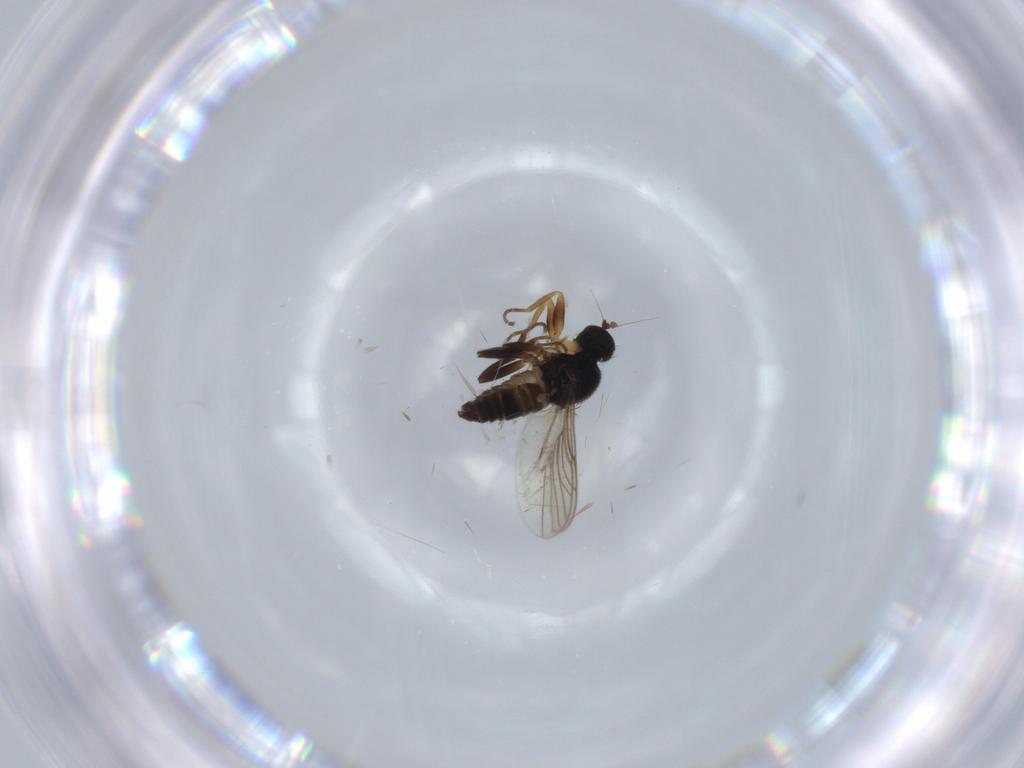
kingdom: Animalia
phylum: Arthropoda
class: Insecta
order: Diptera
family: Hybotidae
